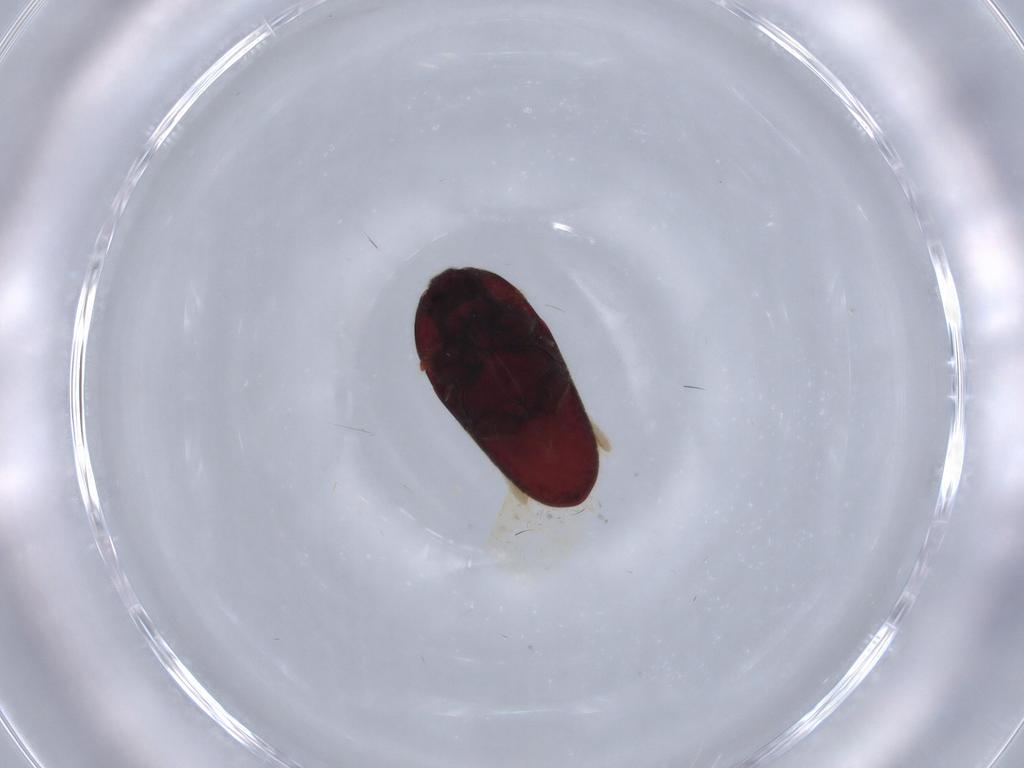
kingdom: Animalia
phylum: Arthropoda
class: Insecta
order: Coleoptera
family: Throscidae
